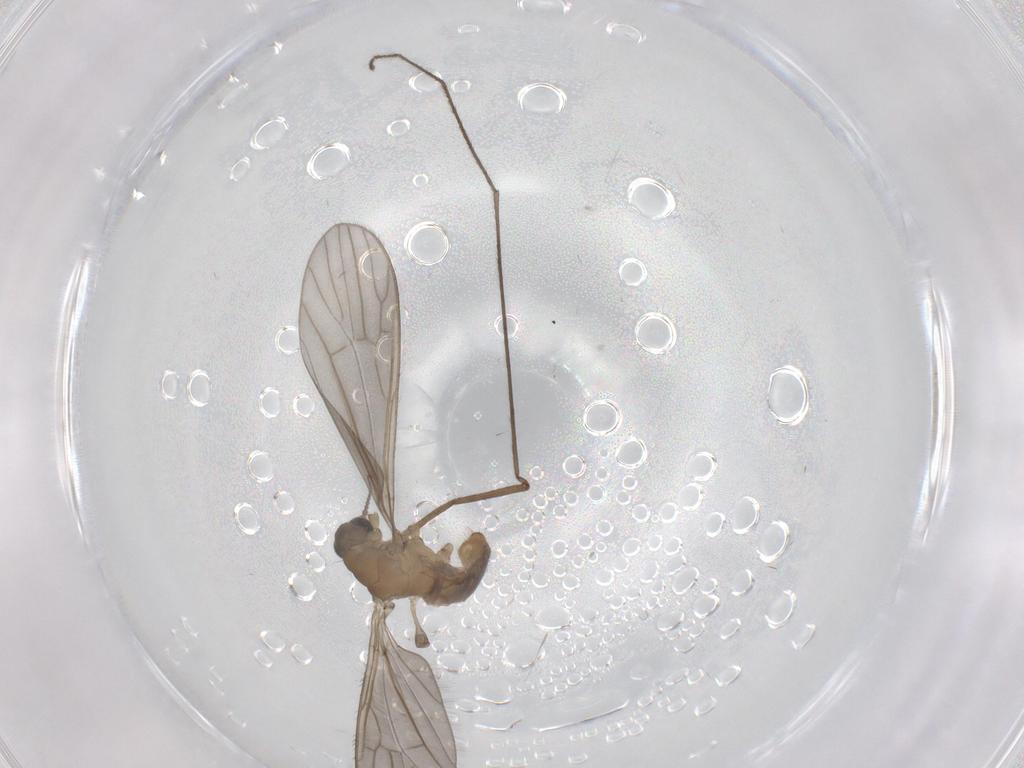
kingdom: Animalia
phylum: Arthropoda
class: Insecta
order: Diptera
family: Limoniidae
